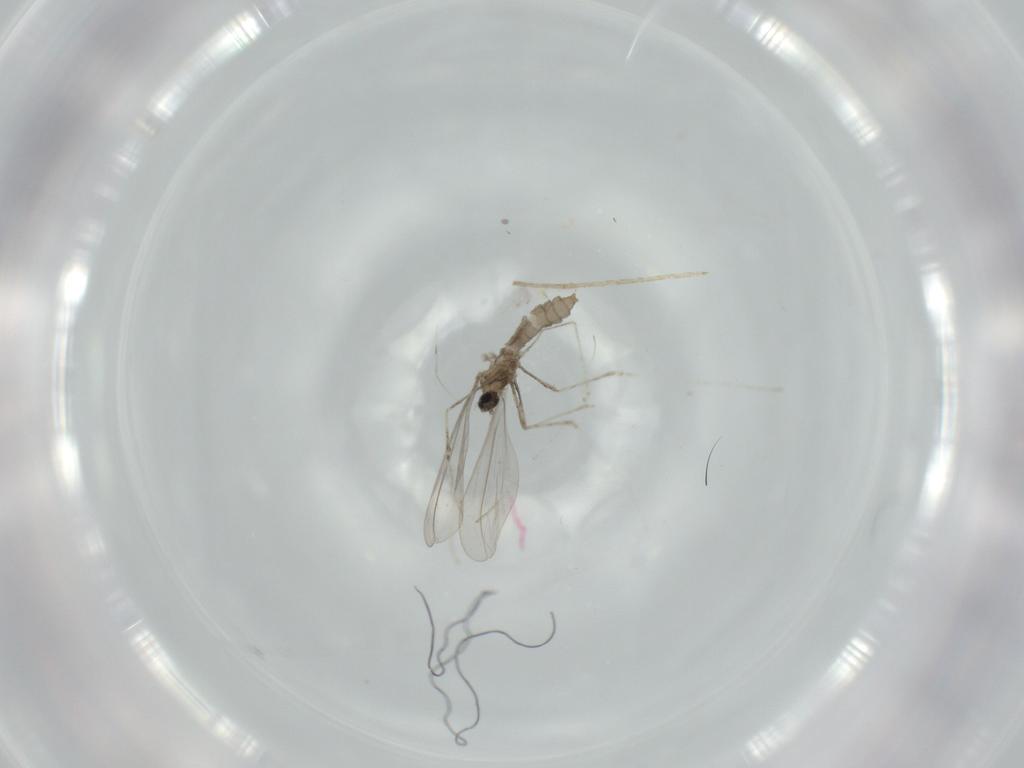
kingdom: Animalia
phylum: Arthropoda
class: Insecta
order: Diptera
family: Cecidomyiidae
